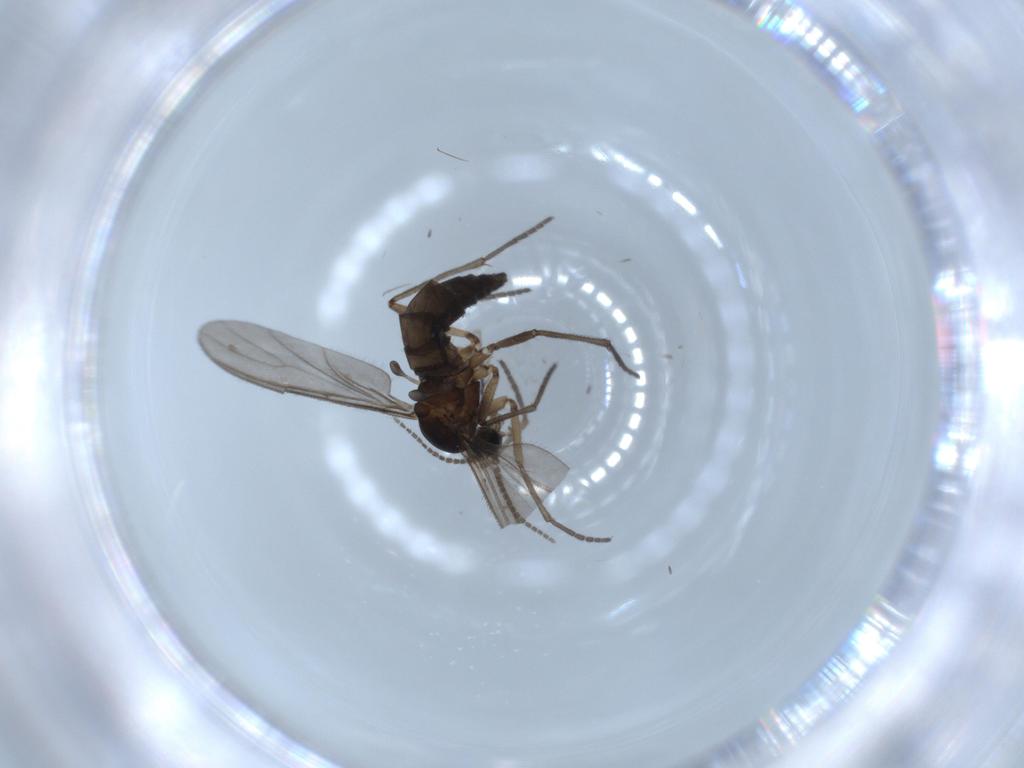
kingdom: Animalia
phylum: Arthropoda
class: Insecta
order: Diptera
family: Sciaridae
